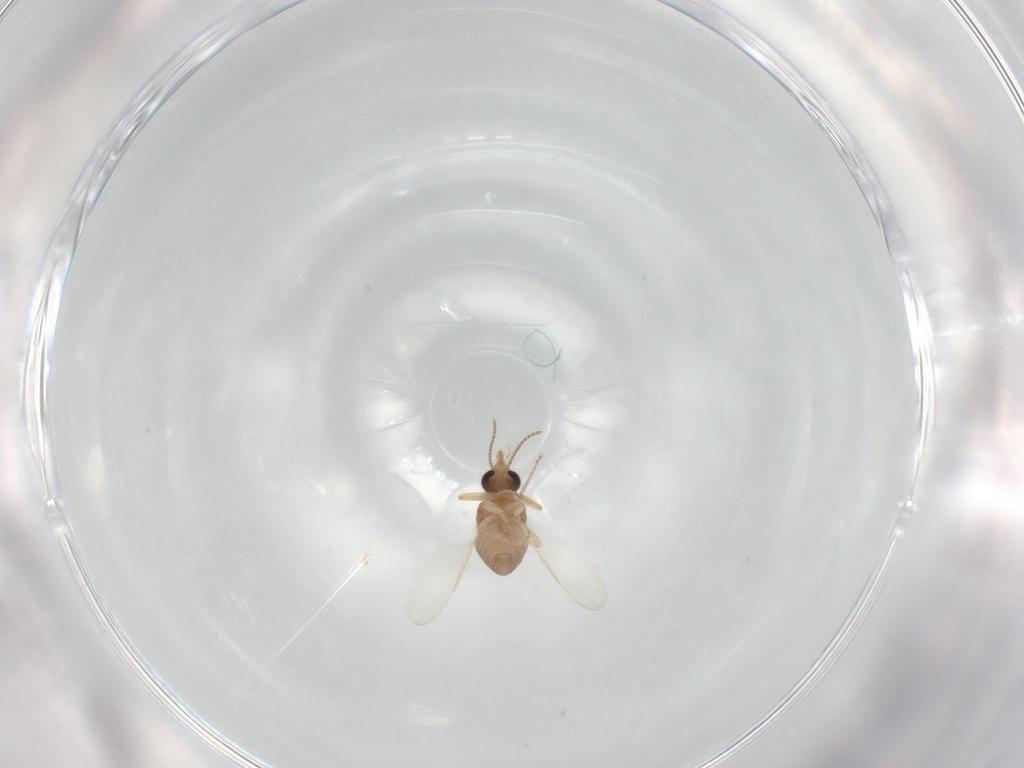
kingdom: Animalia
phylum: Arthropoda
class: Insecta
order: Diptera
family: Ceratopogonidae
